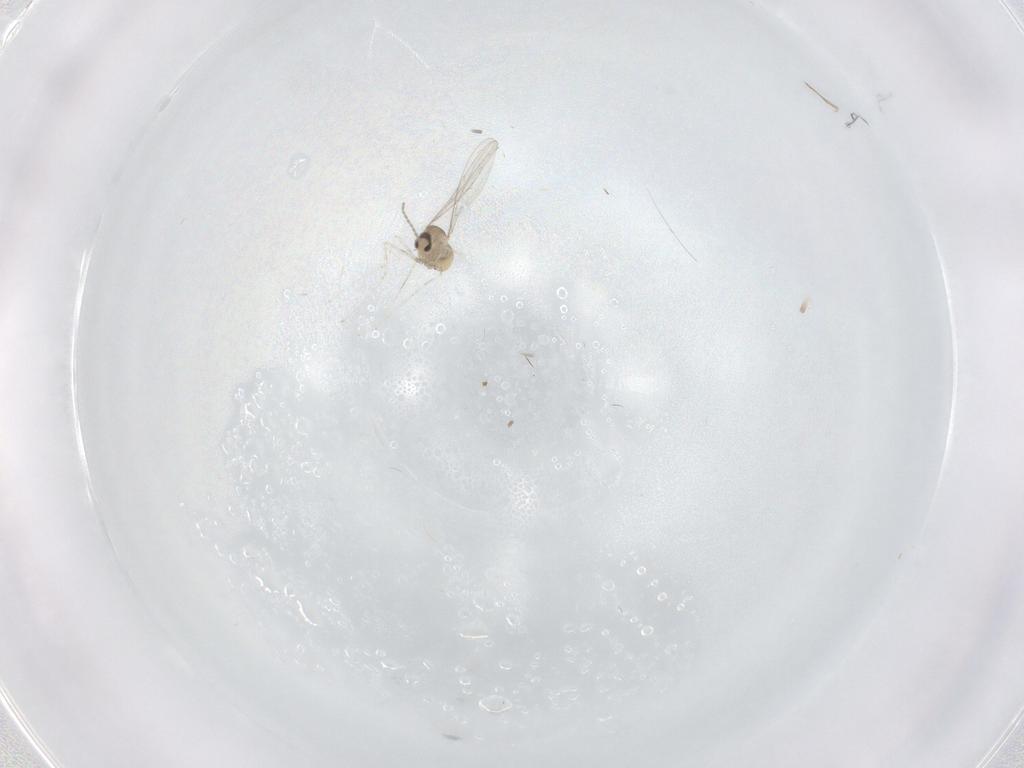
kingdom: Animalia
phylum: Arthropoda
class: Insecta
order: Diptera
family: Cecidomyiidae
